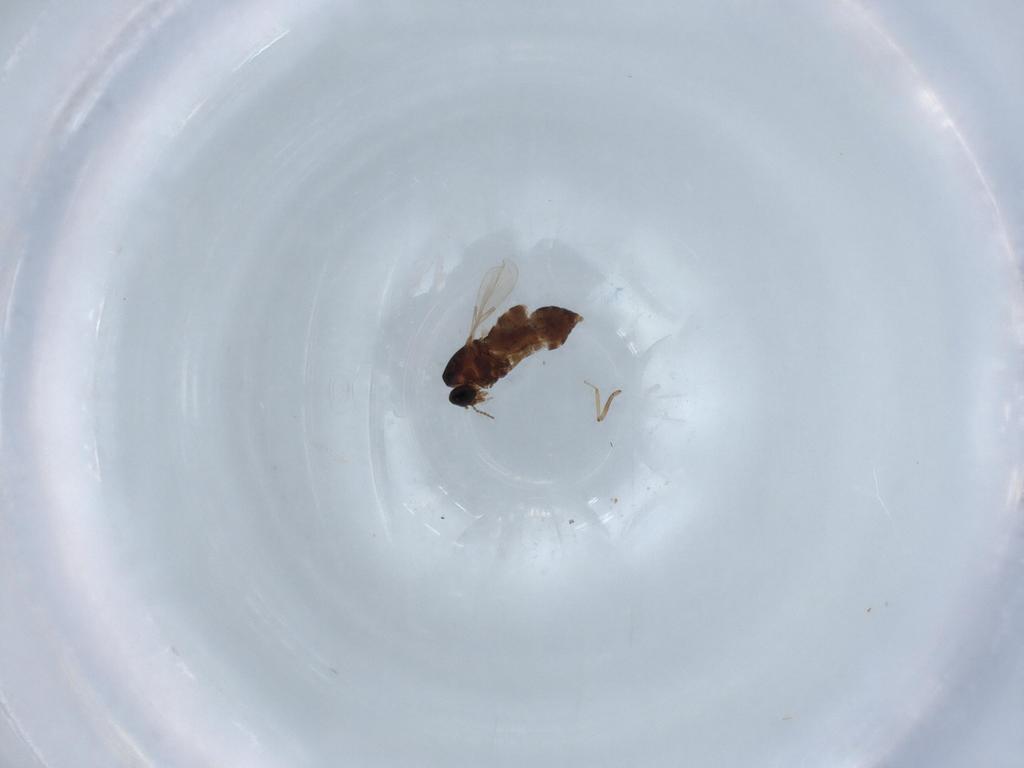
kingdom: Animalia
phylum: Arthropoda
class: Insecta
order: Diptera
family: Ceratopogonidae
